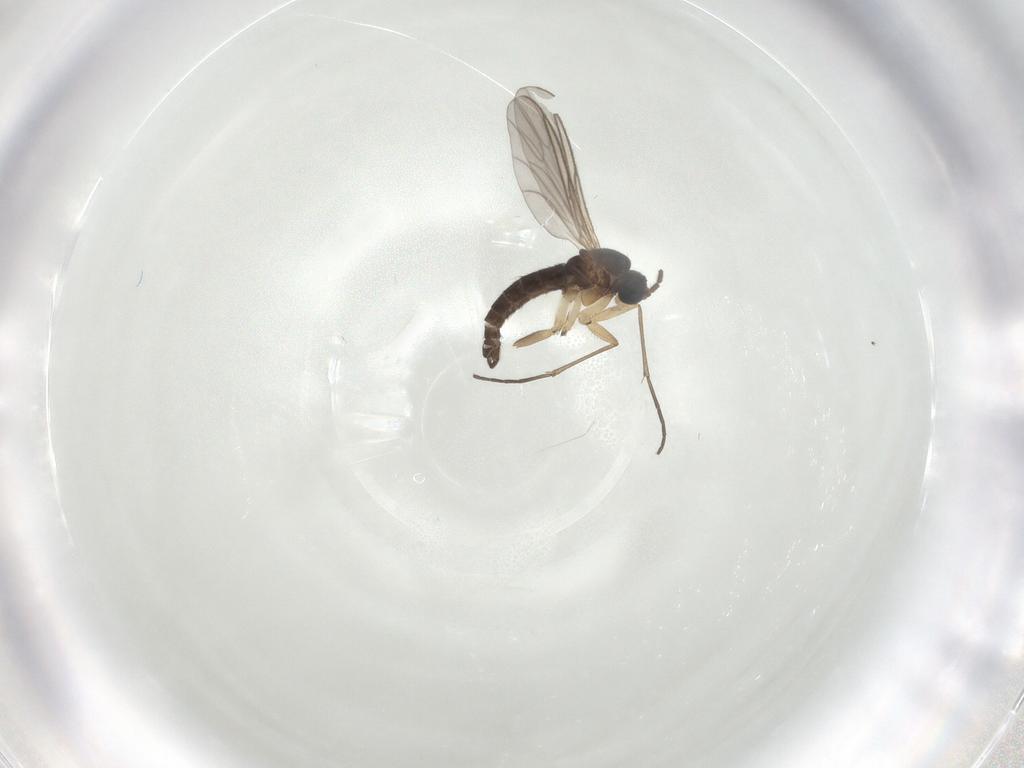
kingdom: Animalia
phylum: Arthropoda
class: Insecta
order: Diptera
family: Sciaridae
